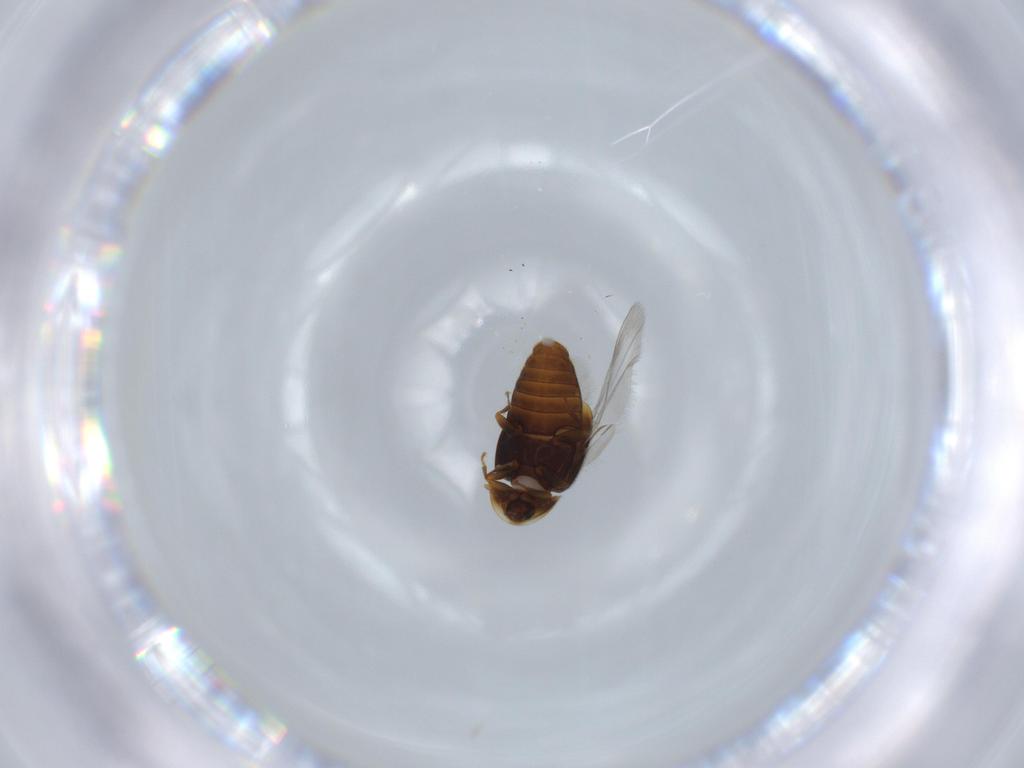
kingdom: Animalia
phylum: Arthropoda
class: Insecta
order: Coleoptera
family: Corylophidae
